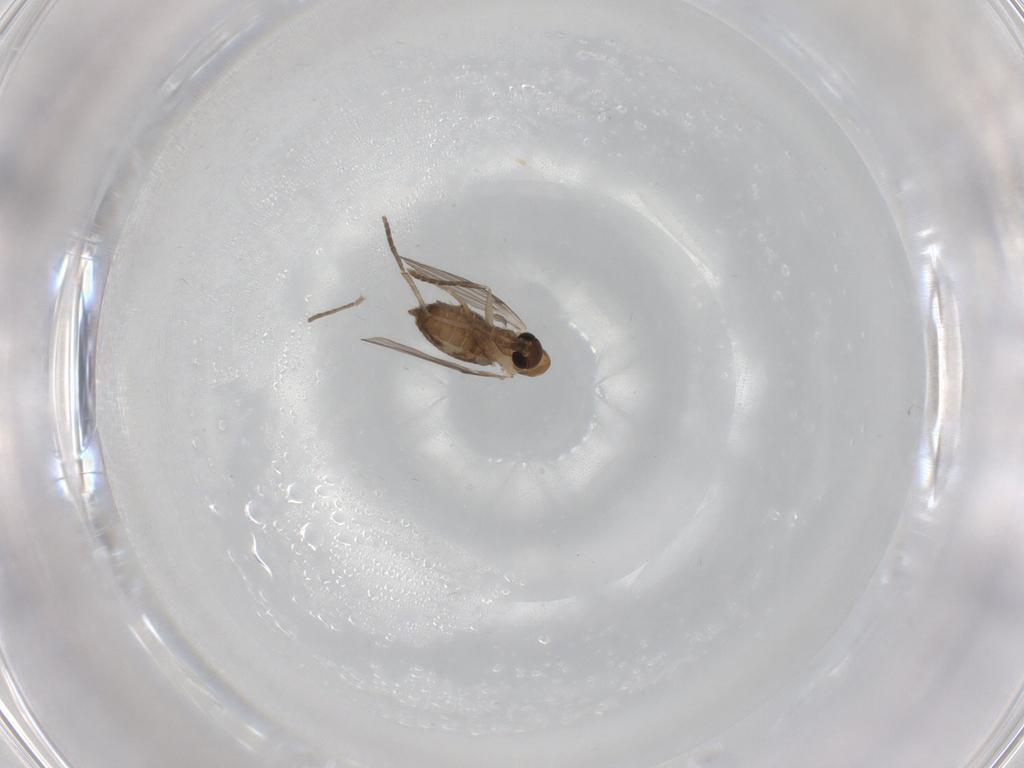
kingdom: Animalia
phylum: Arthropoda
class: Insecta
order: Diptera
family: Psychodidae
